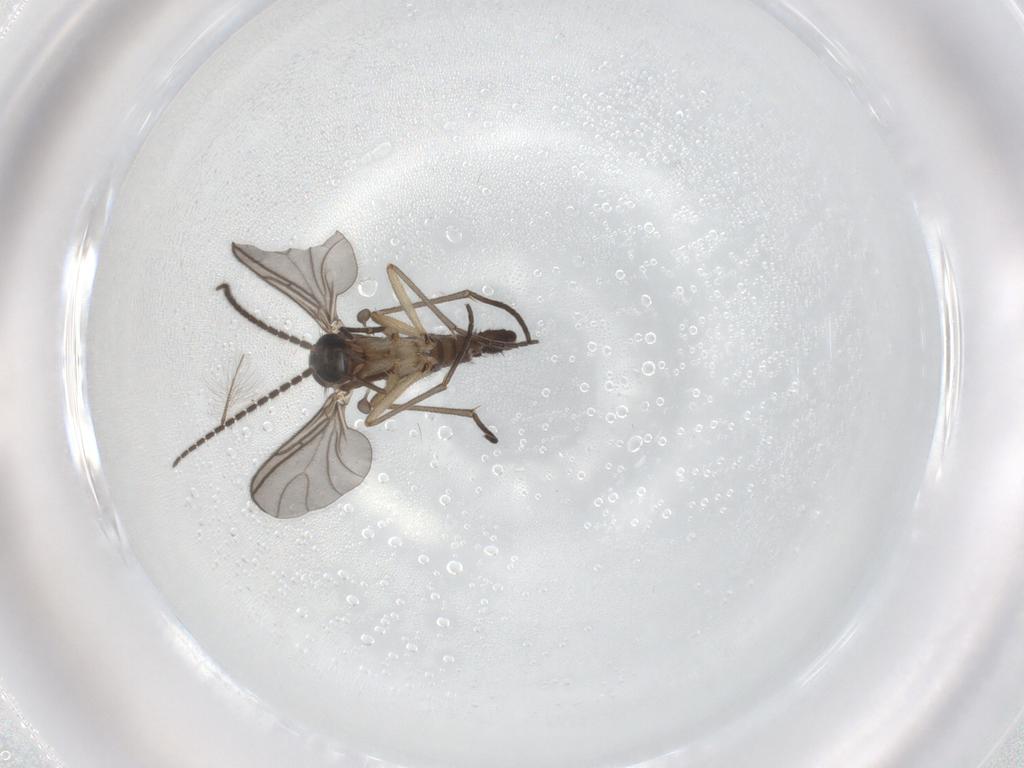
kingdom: Animalia
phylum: Arthropoda
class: Insecta
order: Diptera
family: Sciaridae
